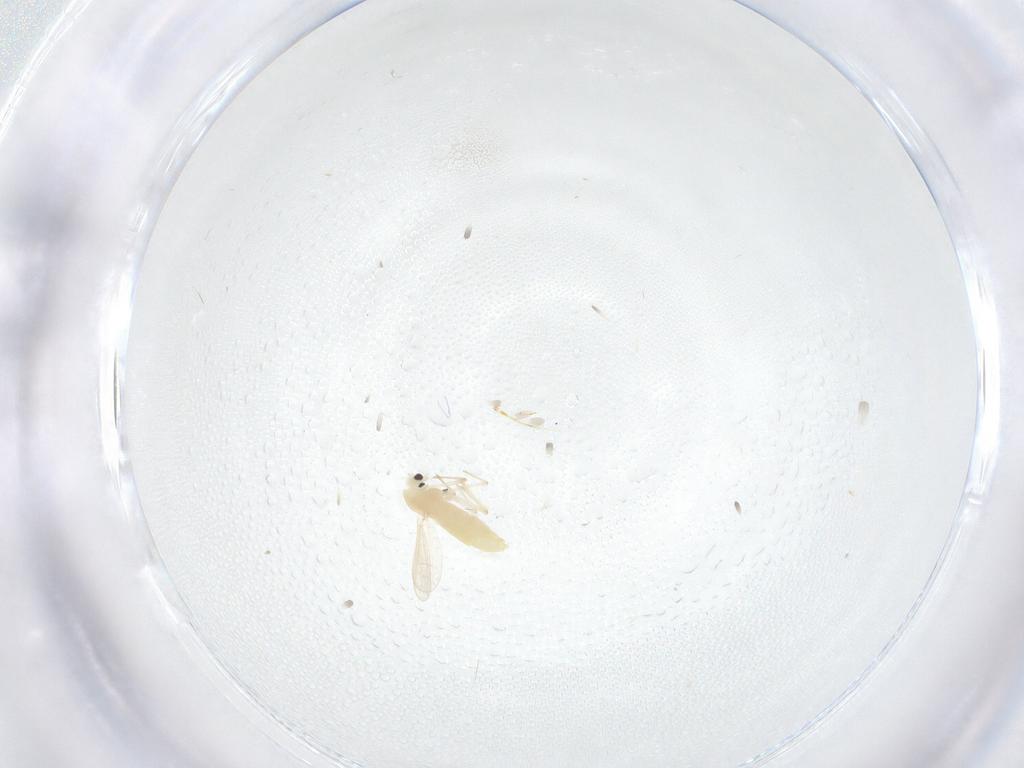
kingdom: Animalia
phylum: Arthropoda
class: Insecta
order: Diptera
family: Chironomidae
